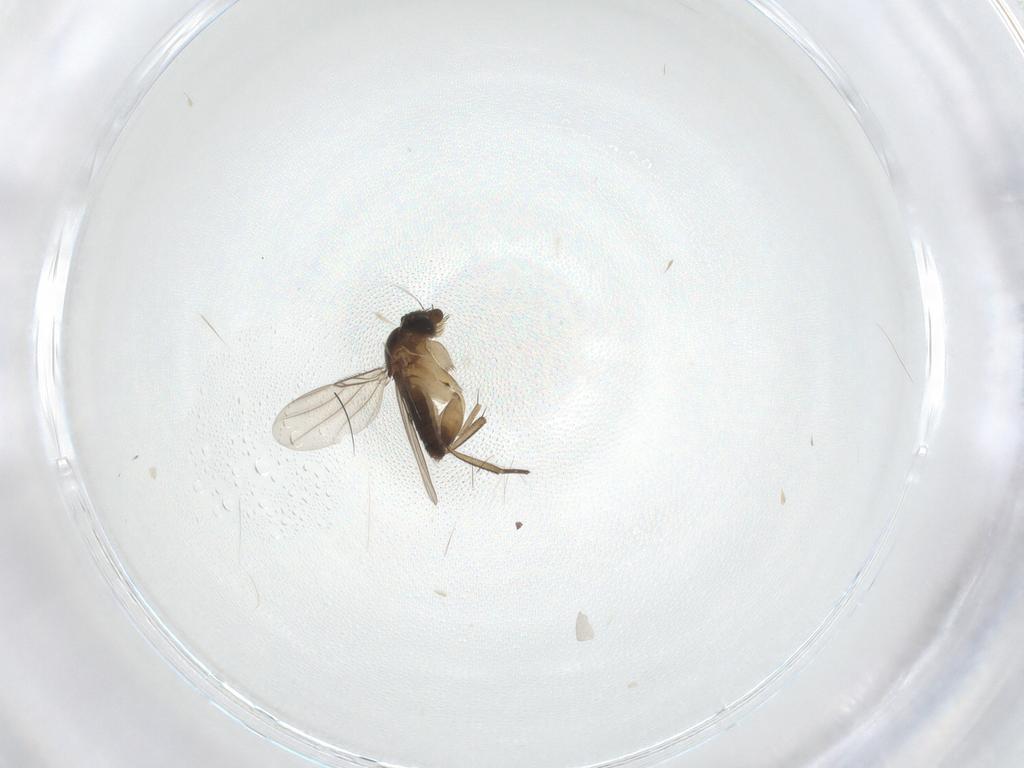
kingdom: Animalia
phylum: Arthropoda
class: Insecta
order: Diptera
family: Phoridae
